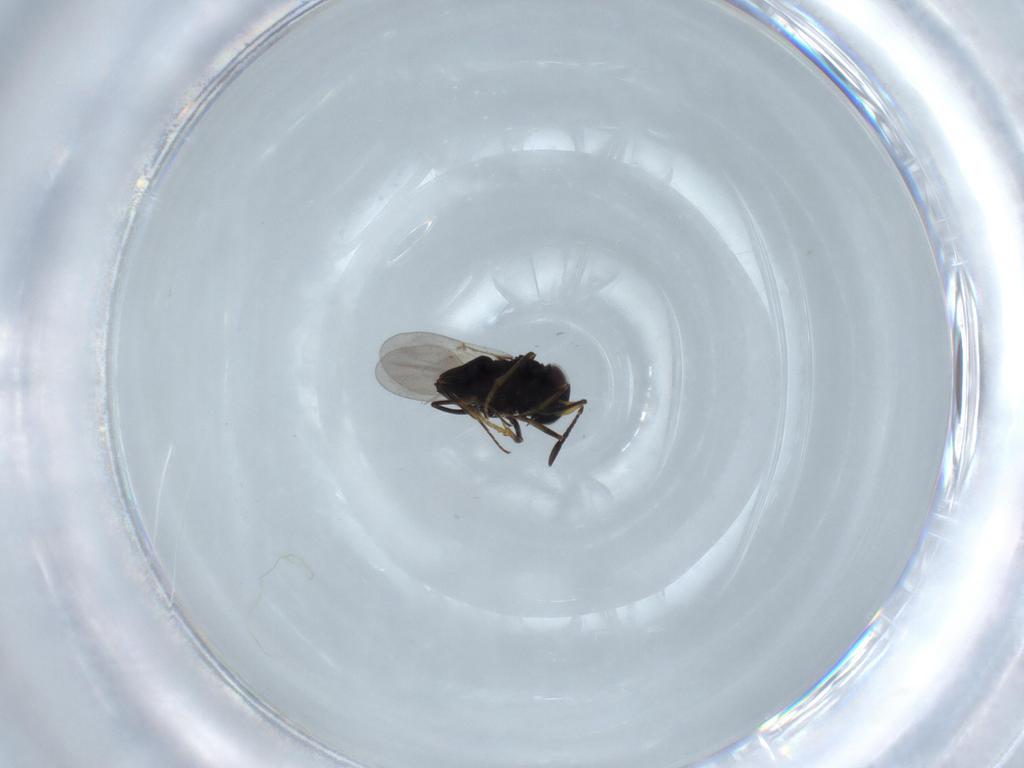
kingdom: Animalia
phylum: Arthropoda
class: Insecta
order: Hymenoptera
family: Encyrtidae
